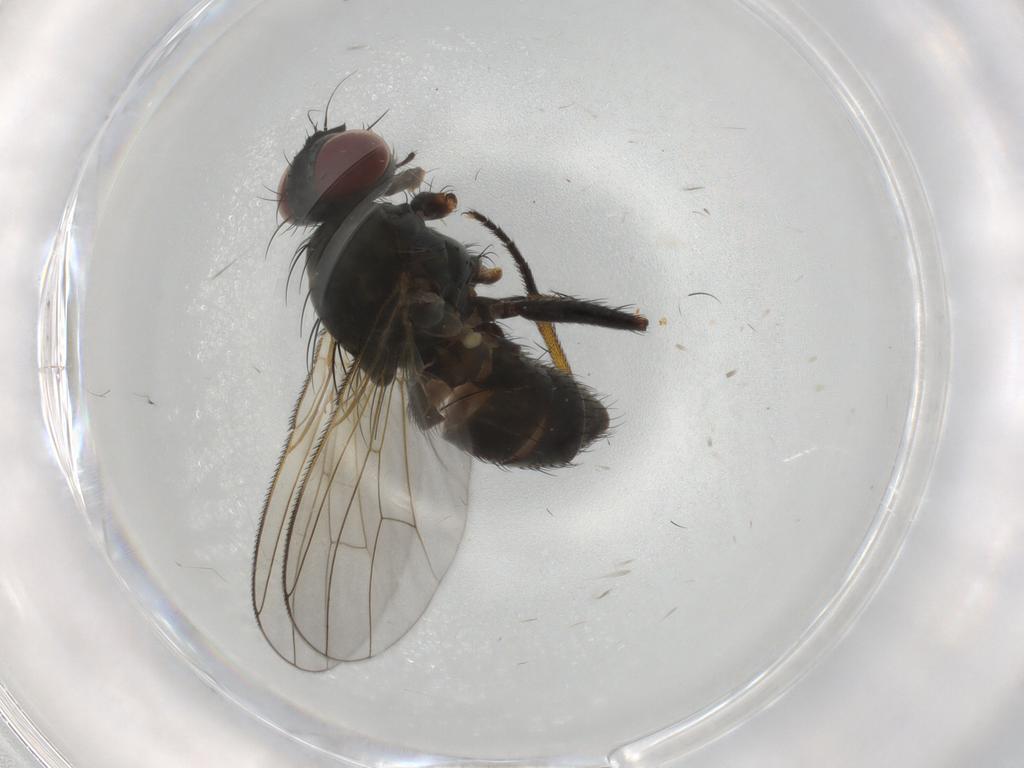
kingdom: Animalia
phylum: Arthropoda
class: Insecta
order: Diptera
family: Muscidae
